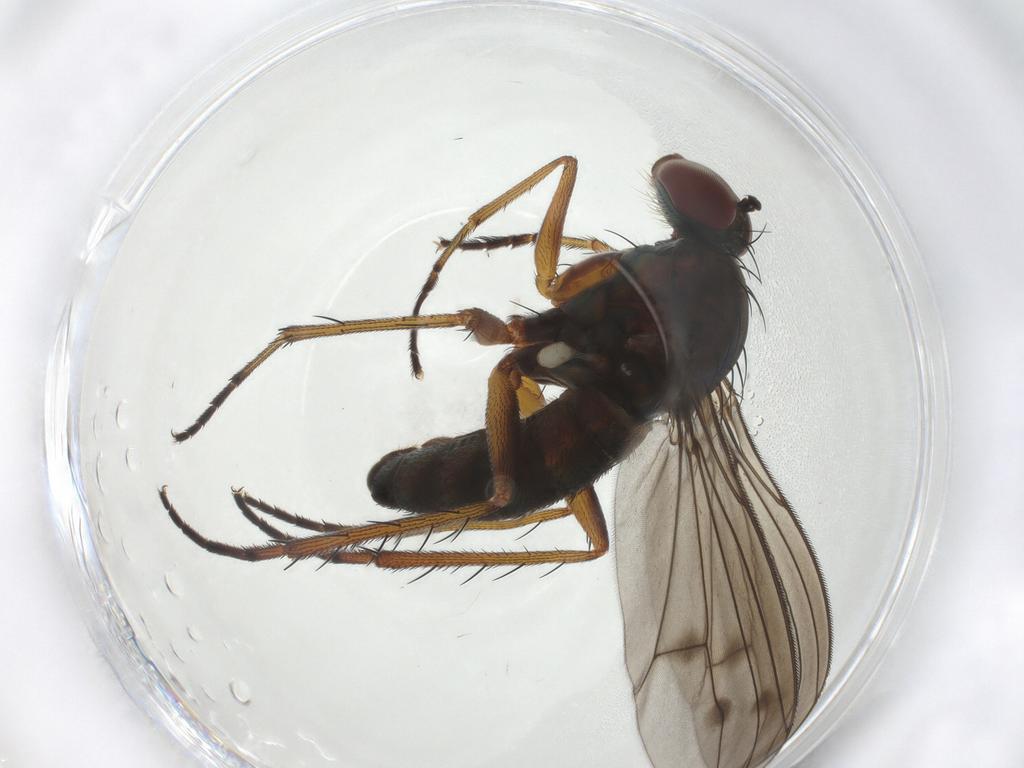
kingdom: Animalia
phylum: Arthropoda
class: Insecta
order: Diptera
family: Dolichopodidae
